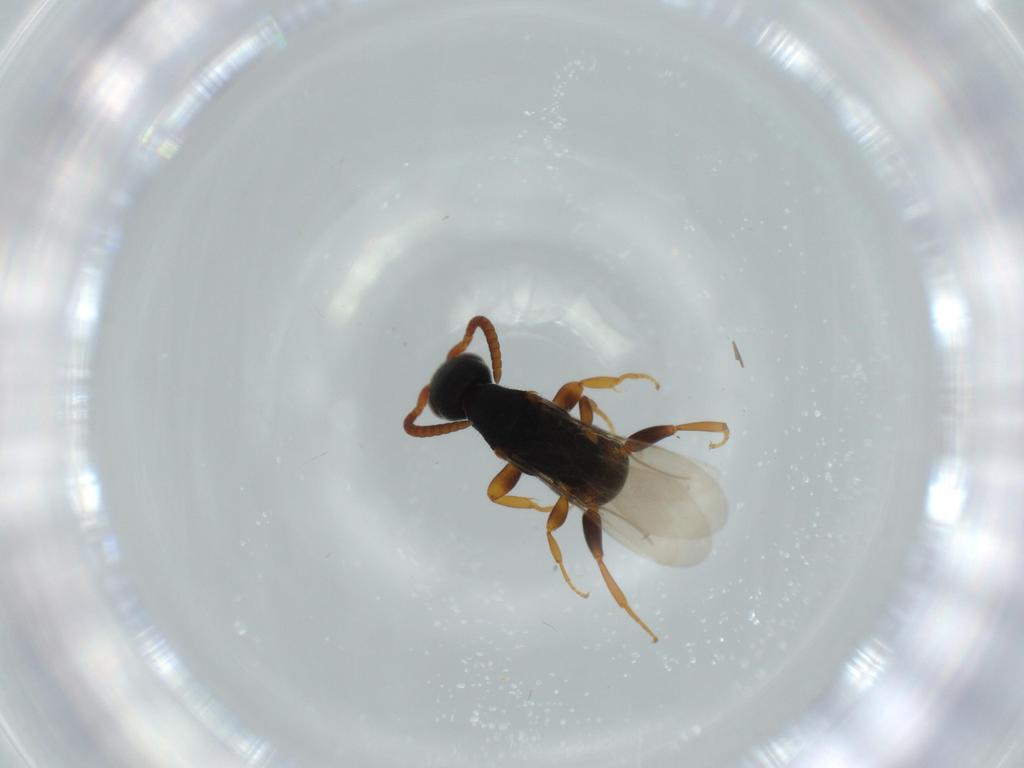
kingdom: Animalia
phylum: Arthropoda
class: Insecta
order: Hymenoptera
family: Bethylidae
